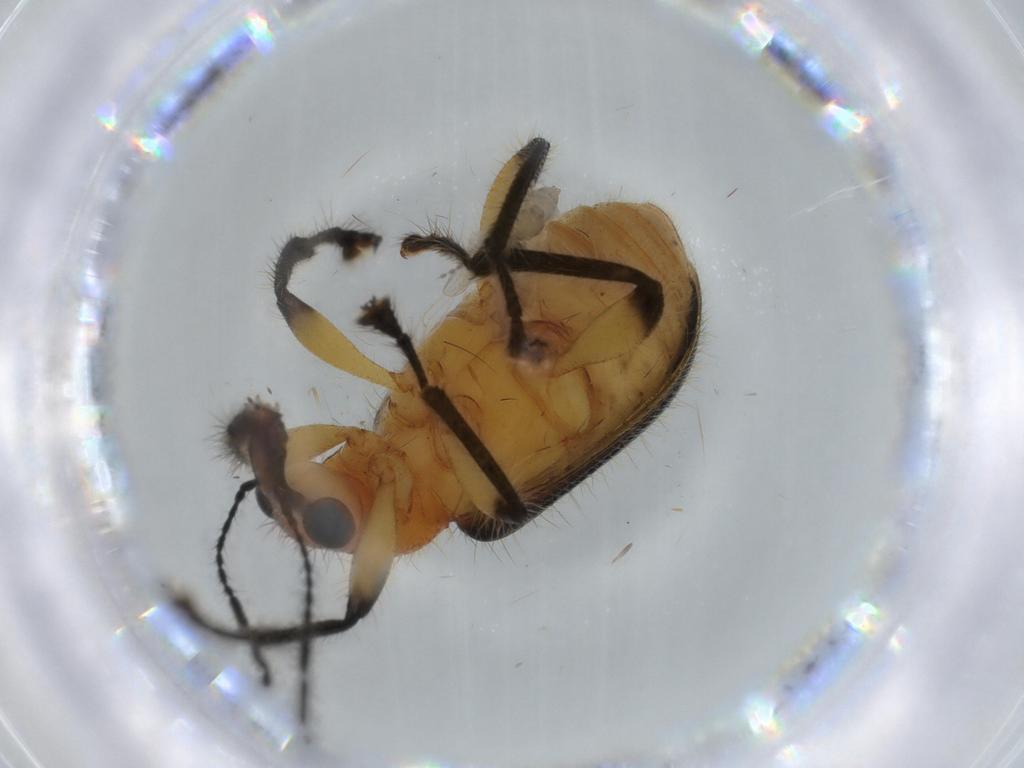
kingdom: Animalia
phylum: Arthropoda
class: Insecta
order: Coleoptera
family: Attelabidae
